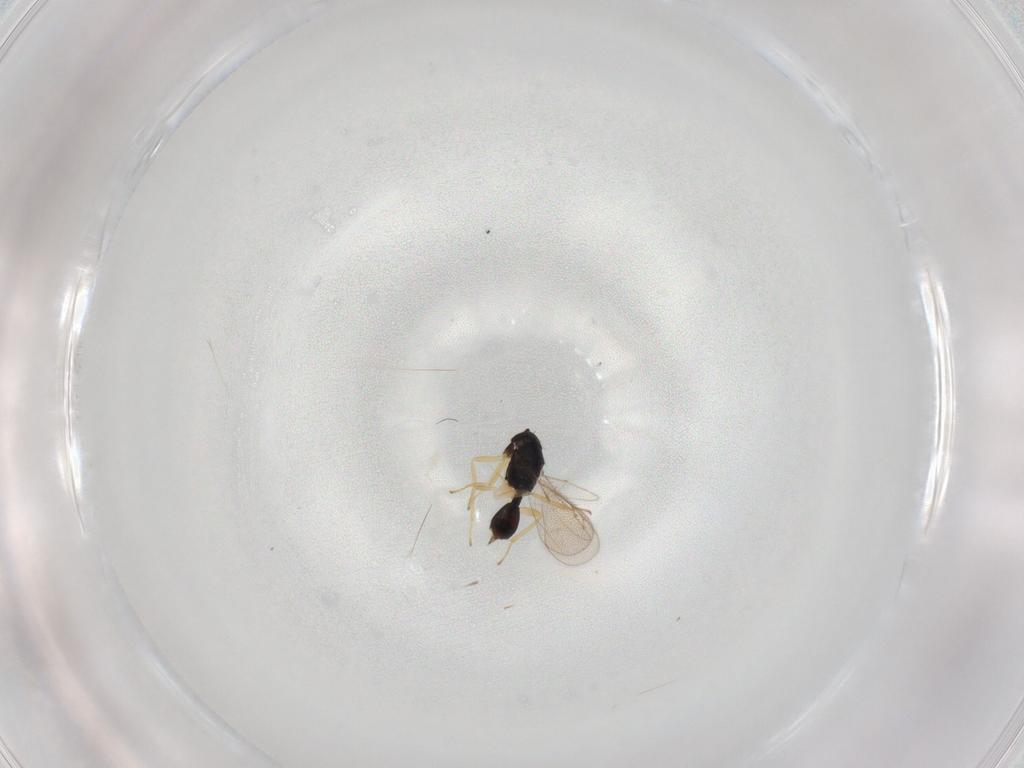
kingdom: Animalia
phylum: Arthropoda
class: Insecta
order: Hymenoptera
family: Eulophidae
